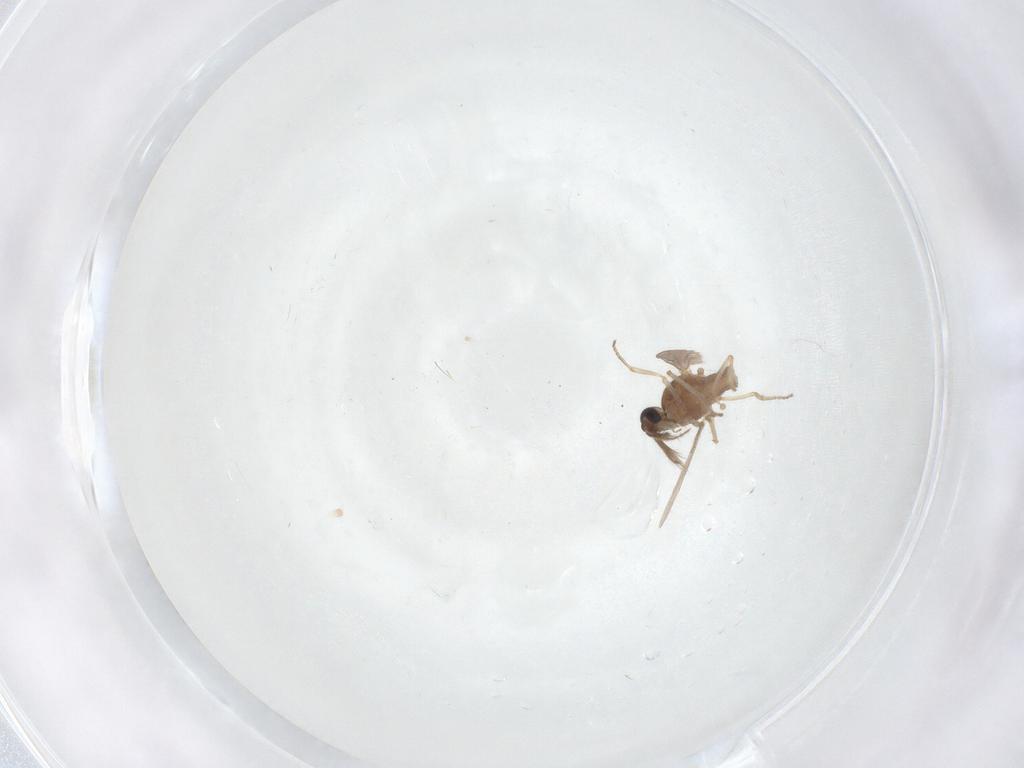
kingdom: Animalia
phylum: Arthropoda
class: Insecta
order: Diptera
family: Ceratopogonidae
